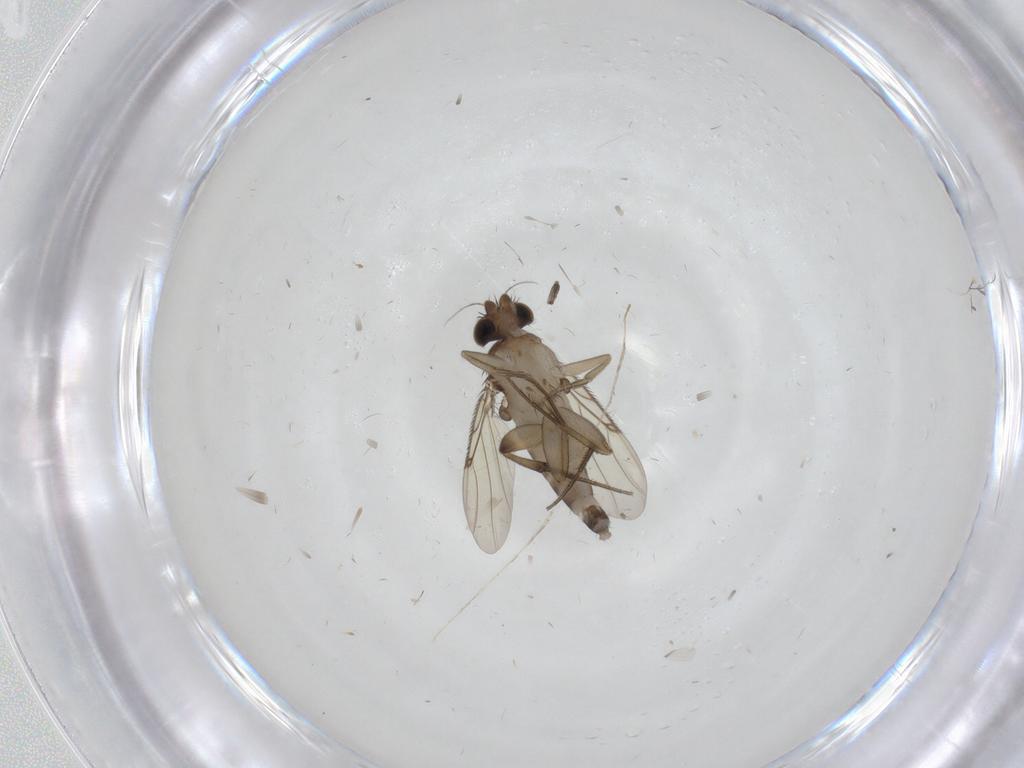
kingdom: Animalia
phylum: Arthropoda
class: Insecta
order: Diptera
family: Phoridae
